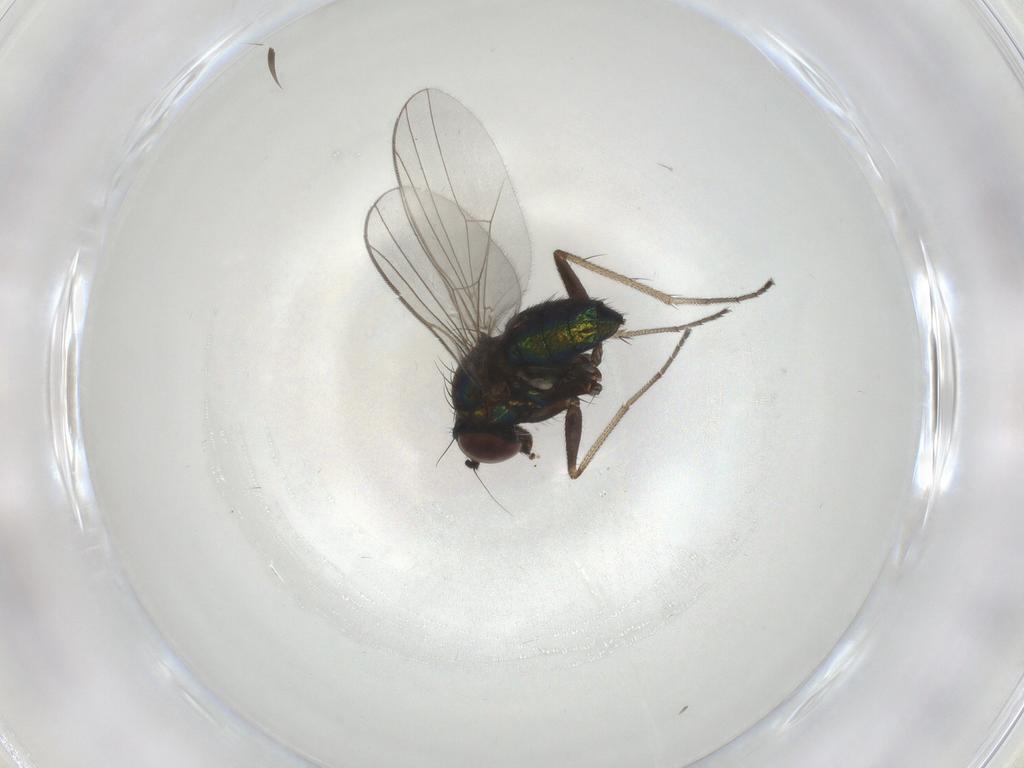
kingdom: Animalia
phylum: Arthropoda
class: Insecta
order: Diptera
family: Dolichopodidae
